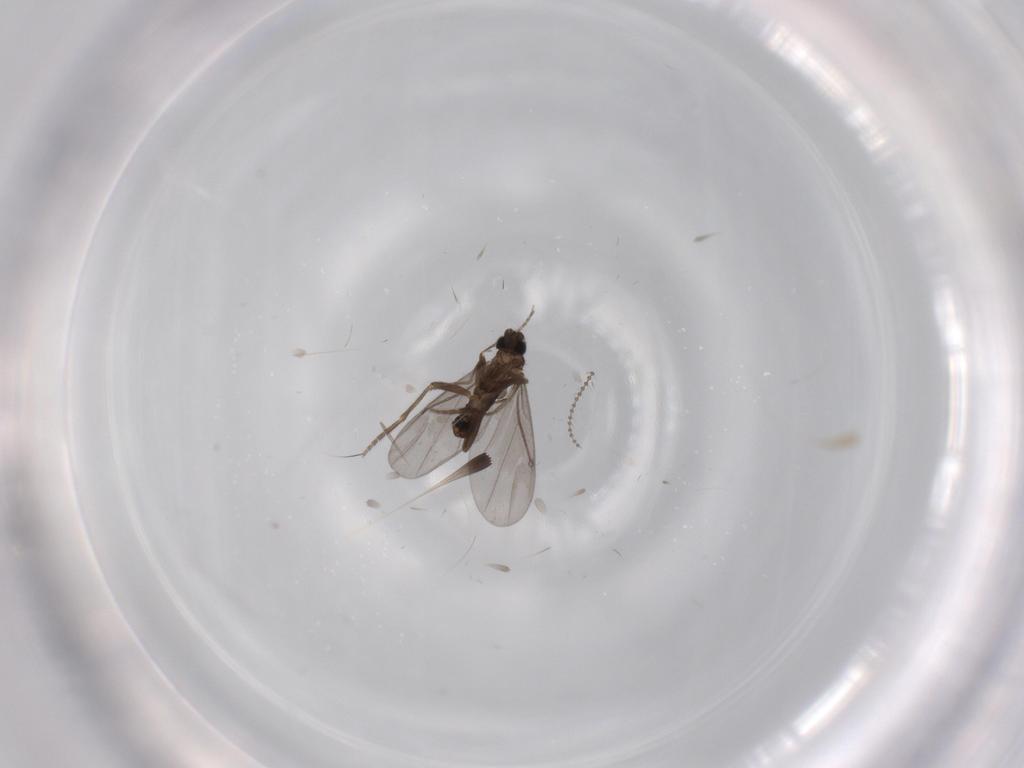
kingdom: Animalia
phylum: Arthropoda
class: Insecta
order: Diptera
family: Phoridae
